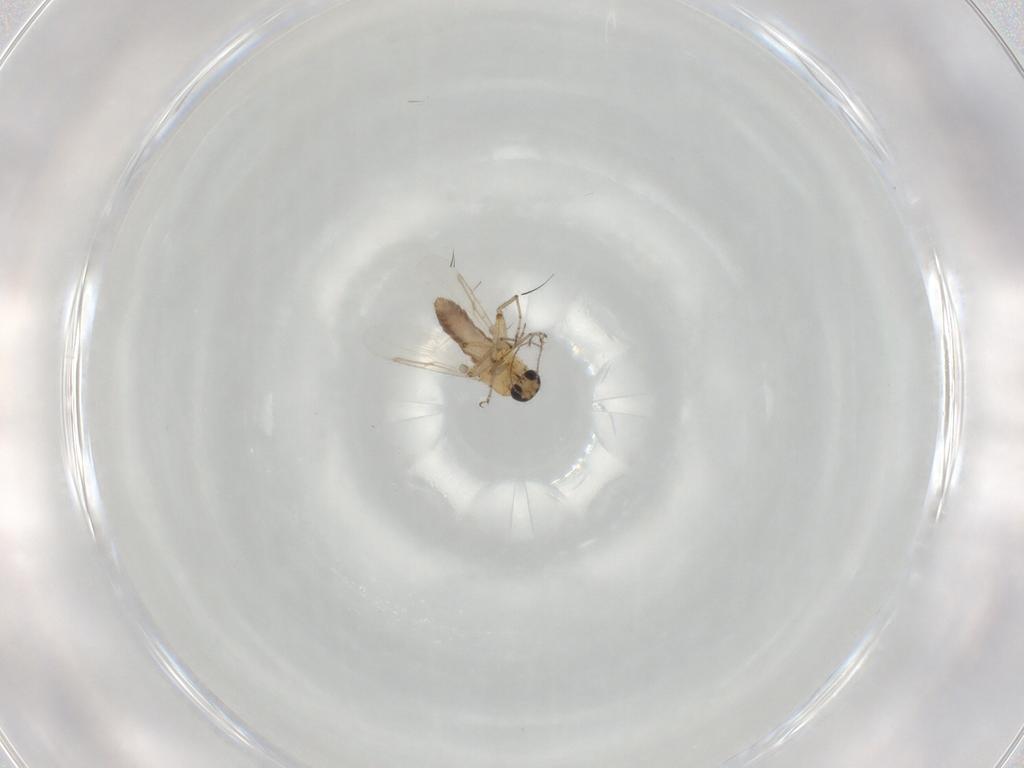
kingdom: Animalia
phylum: Arthropoda
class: Insecta
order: Diptera
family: Ceratopogonidae
